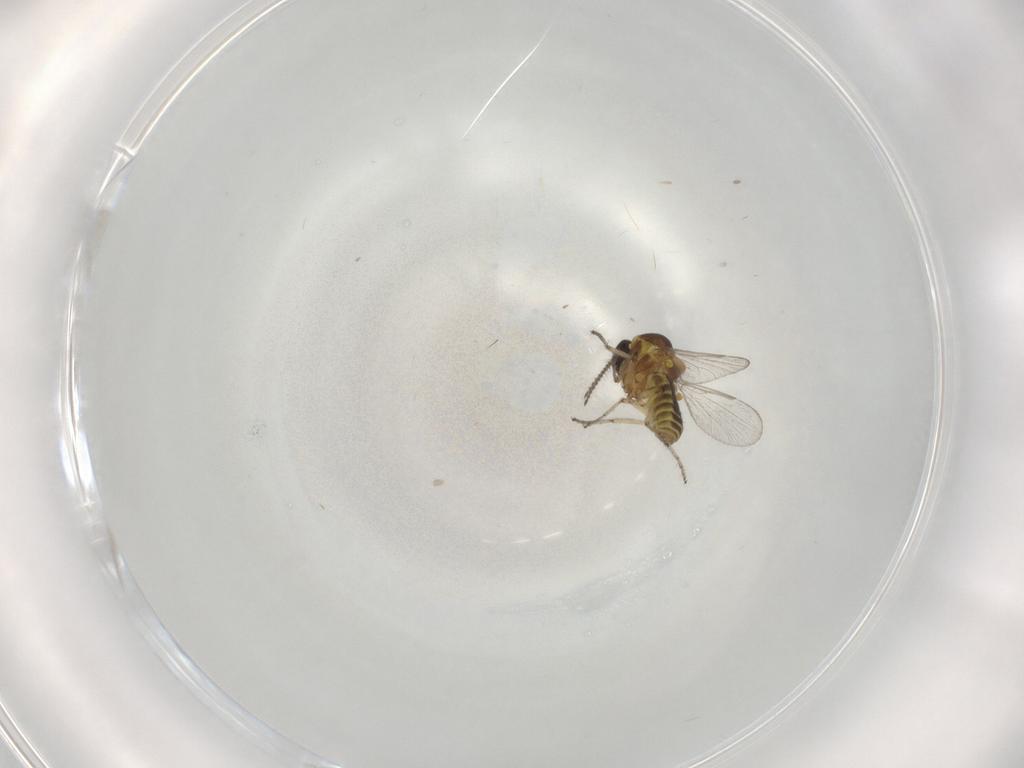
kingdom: Animalia
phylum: Arthropoda
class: Insecta
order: Diptera
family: Ceratopogonidae
